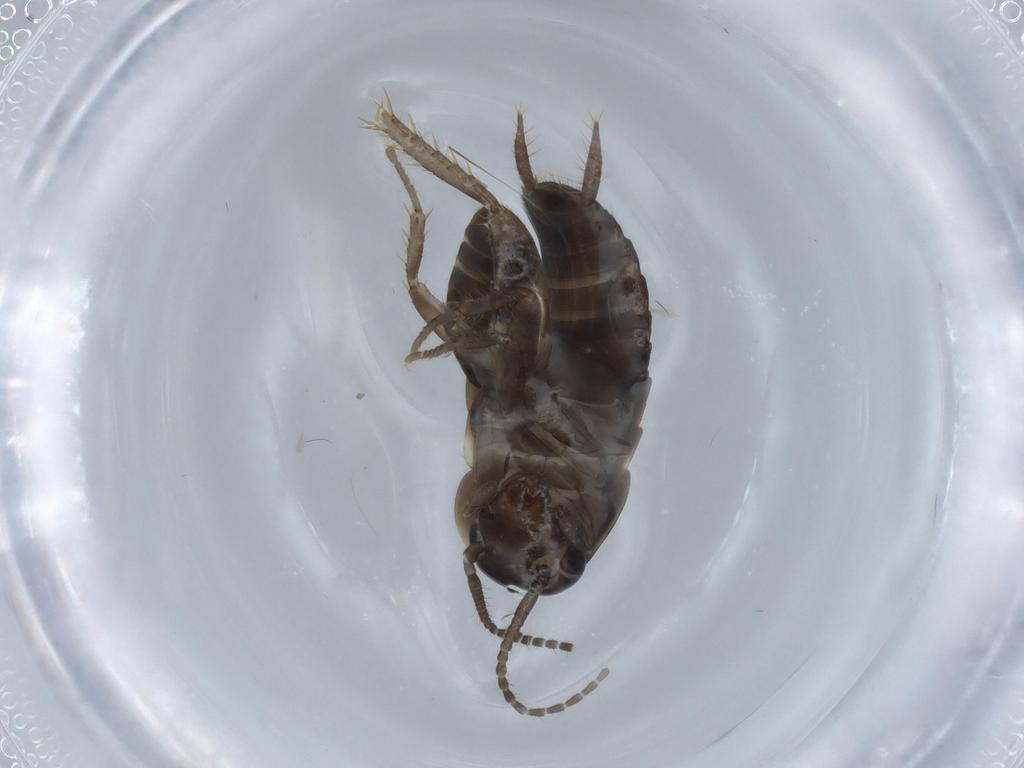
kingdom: Animalia
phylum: Arthropoda
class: Insecta
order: Blattodea
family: Termitidae
